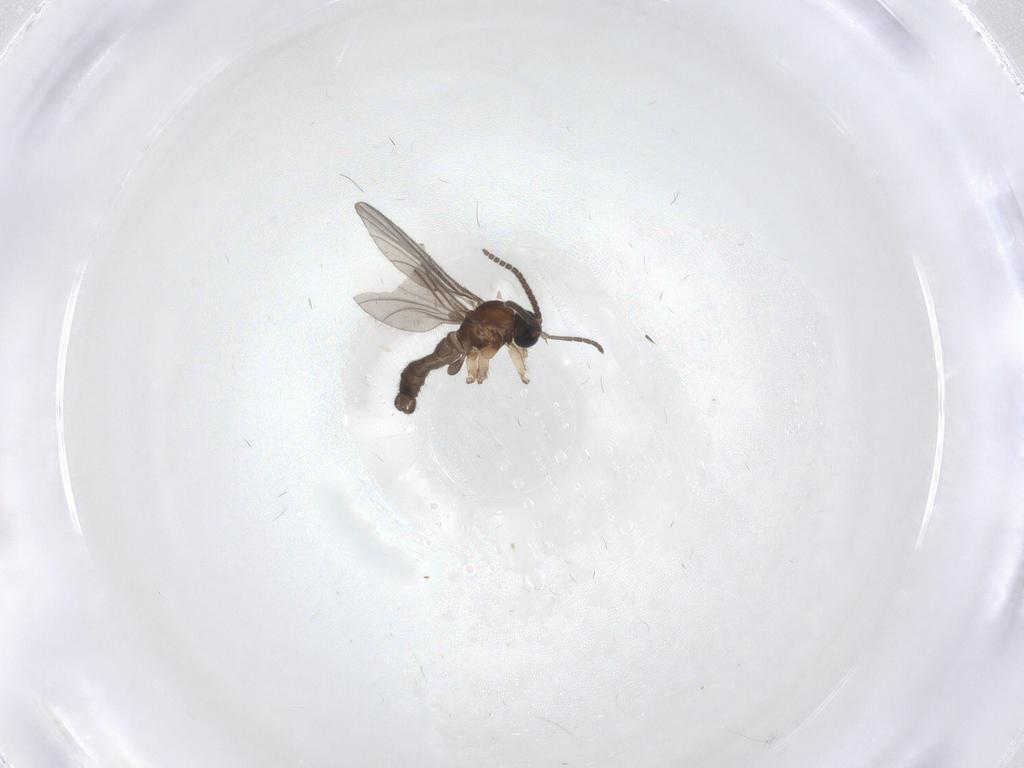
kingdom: Animalia
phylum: Arthropoda
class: Insecta
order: Diptera
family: Sciaridae
